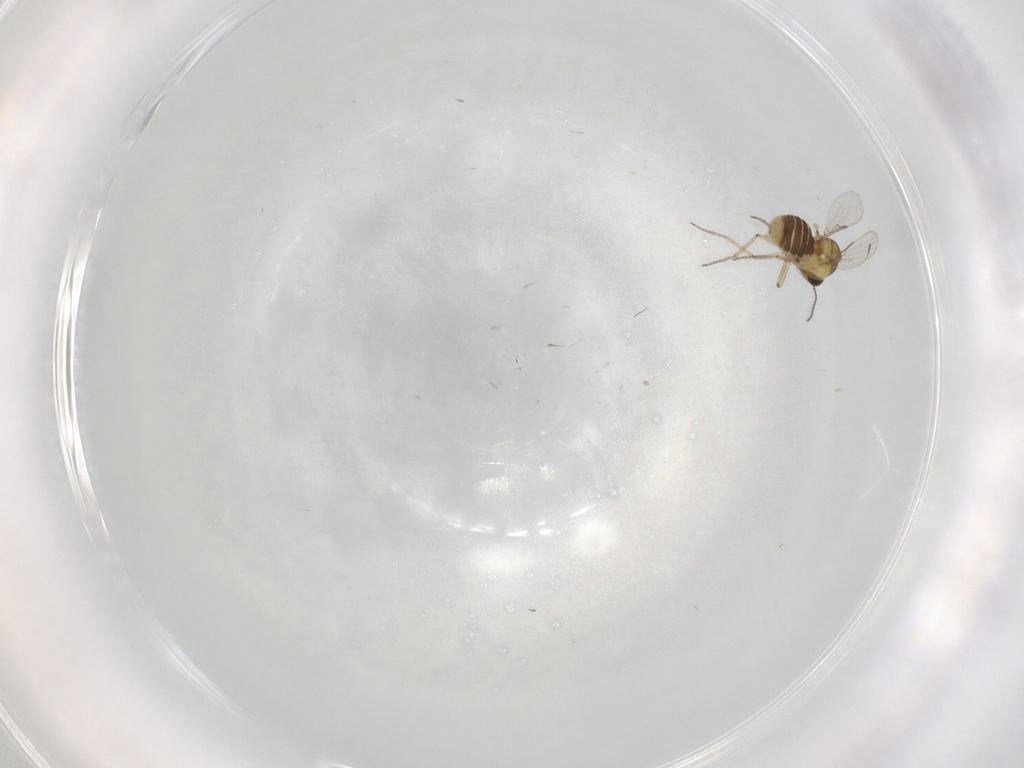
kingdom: Animalia
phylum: Arthropoda
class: Insecta
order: Diptera
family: Ceratopogonidae
